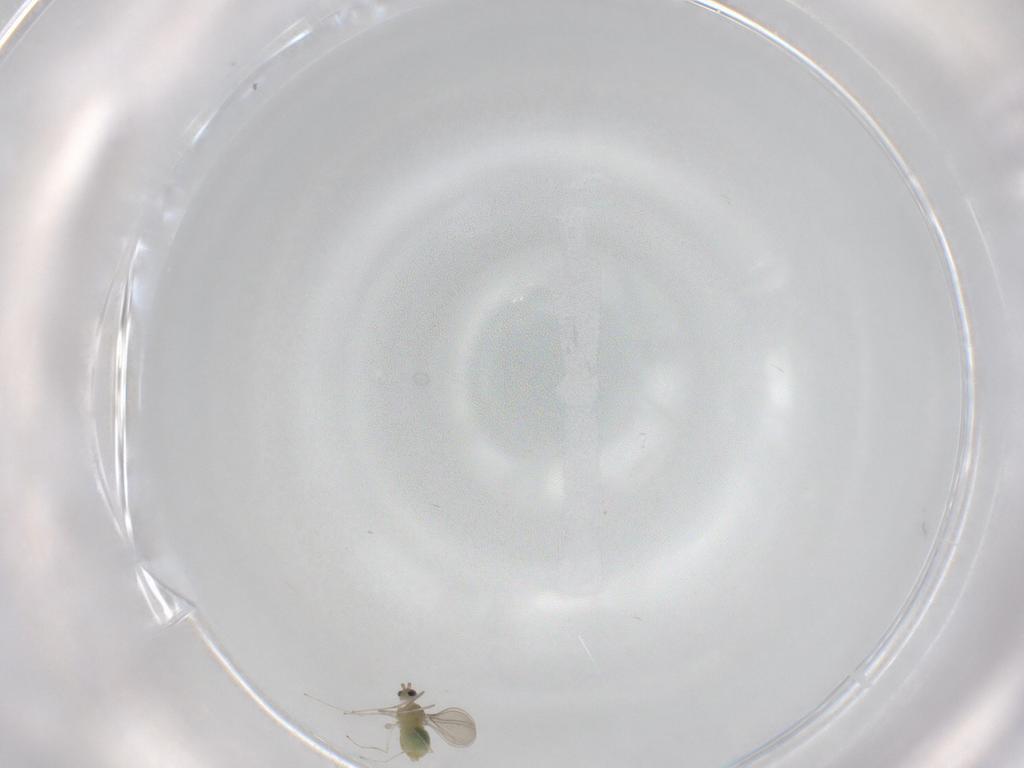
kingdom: Animalia
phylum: Arthropoda
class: Insecta
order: Diptera
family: Cecidomyiidae
